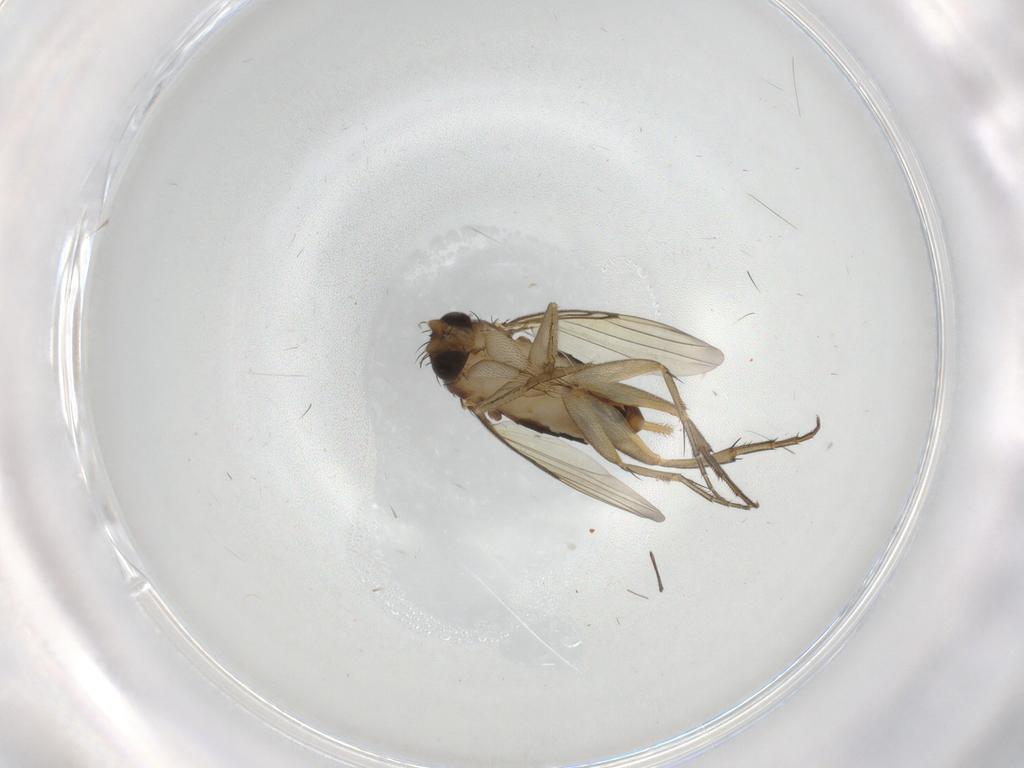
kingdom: Animalia
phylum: Arthropoda
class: Insecta
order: Diptera
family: Phoridae
